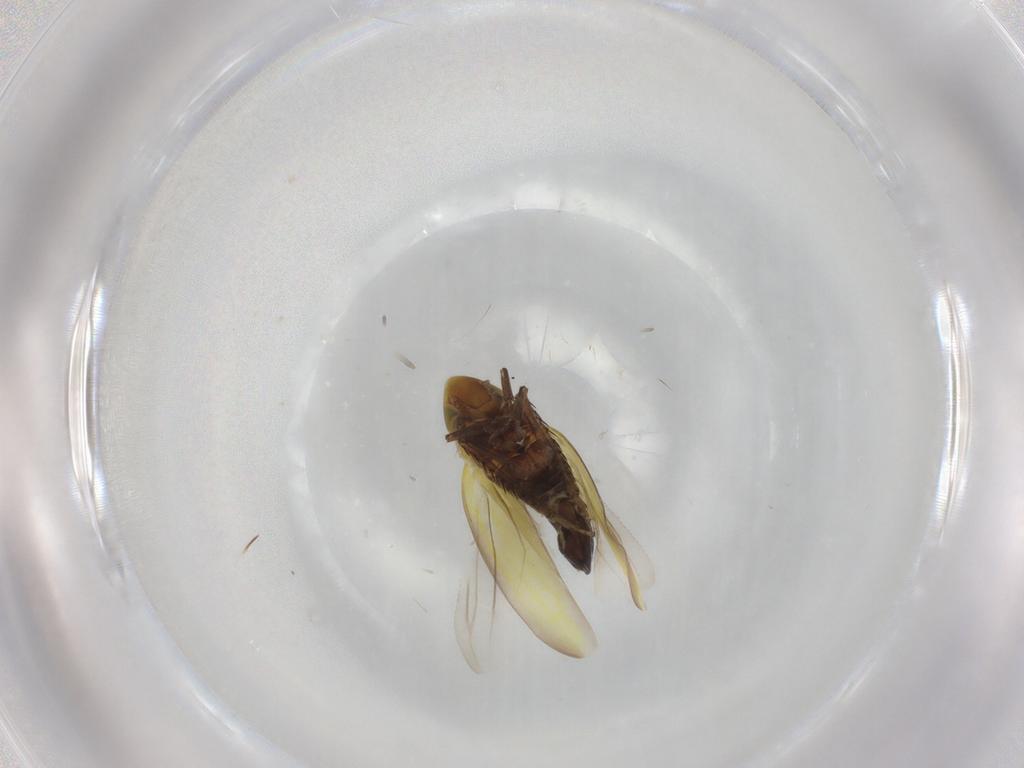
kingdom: Animalia
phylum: Arthropoda
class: Insecta
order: Hemiptera
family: Cicadellidae
